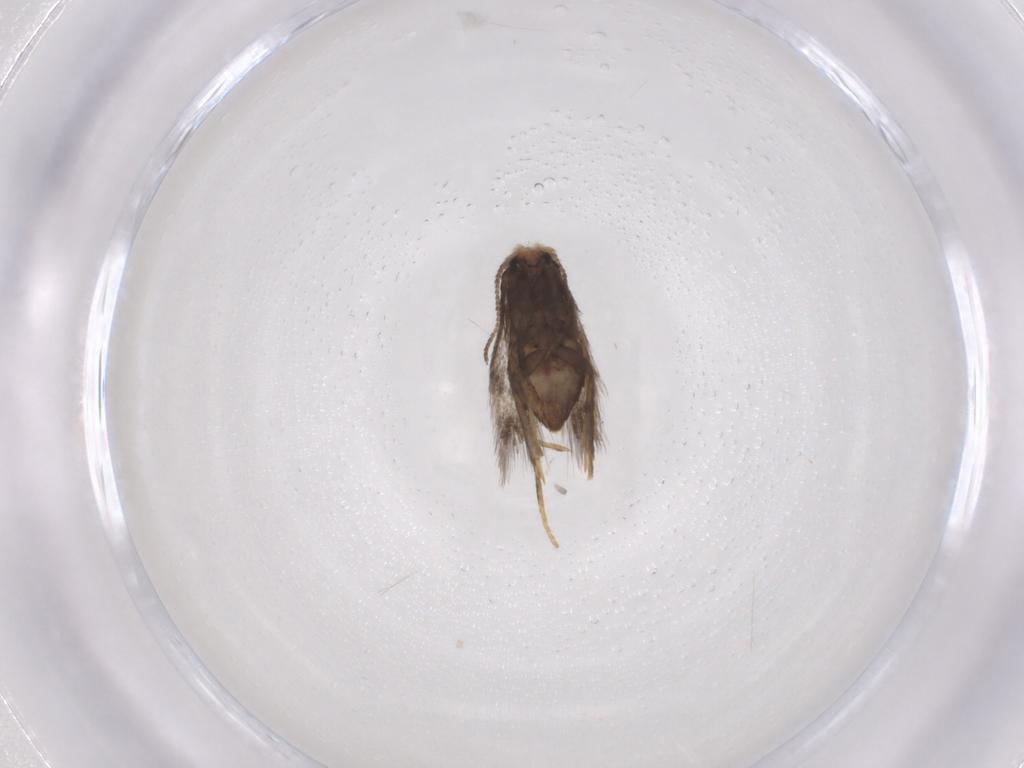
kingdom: Animalia
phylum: Arthropoda
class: Insecta
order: Lepidoptera
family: Nepticulidae
